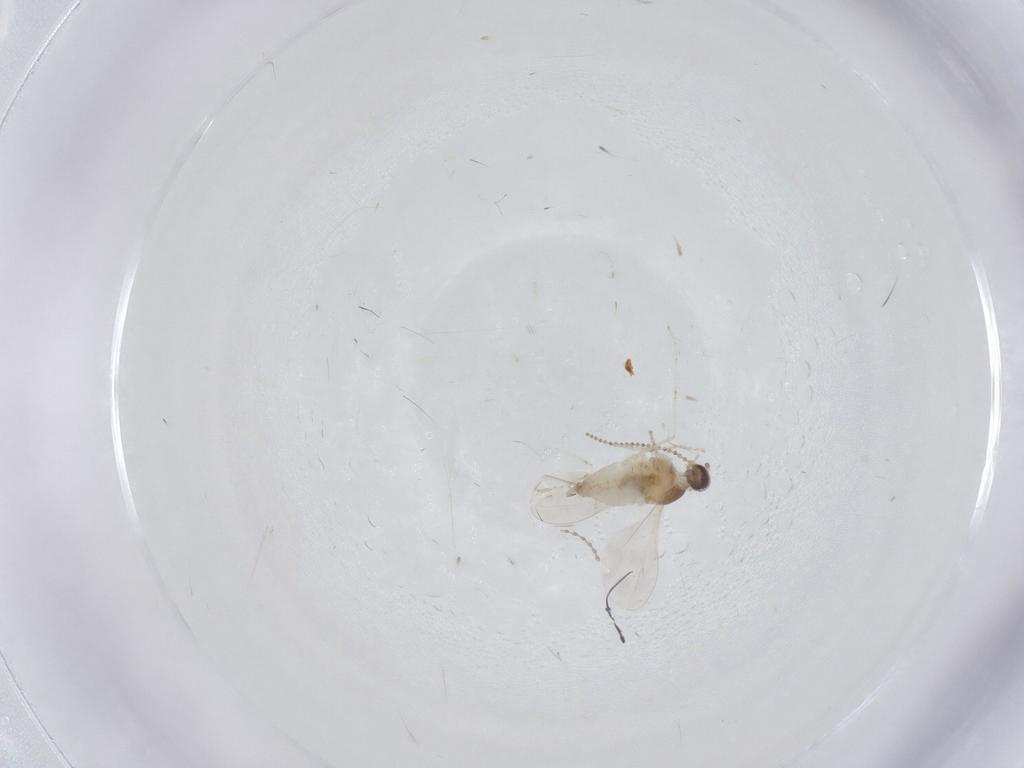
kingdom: Animalia
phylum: Arthropoda
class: Insecta
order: Diptera
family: Cecidomyiidae
